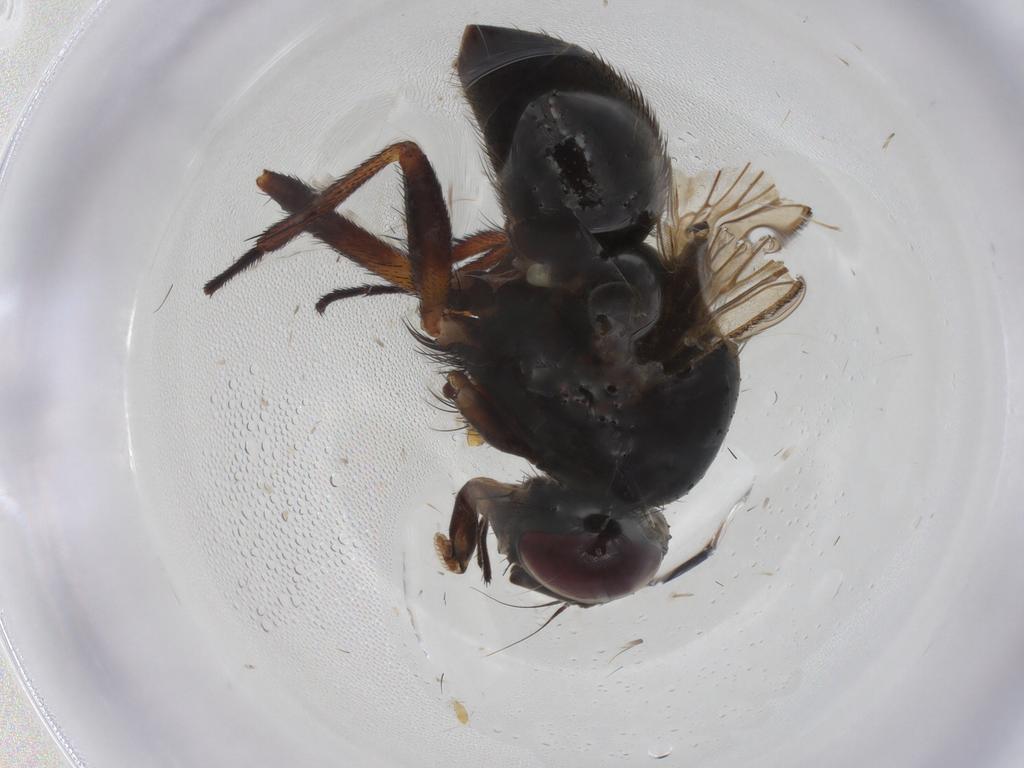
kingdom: Animalia
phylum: Arthropoda
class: Insecta
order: Diptera
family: Muscidae
